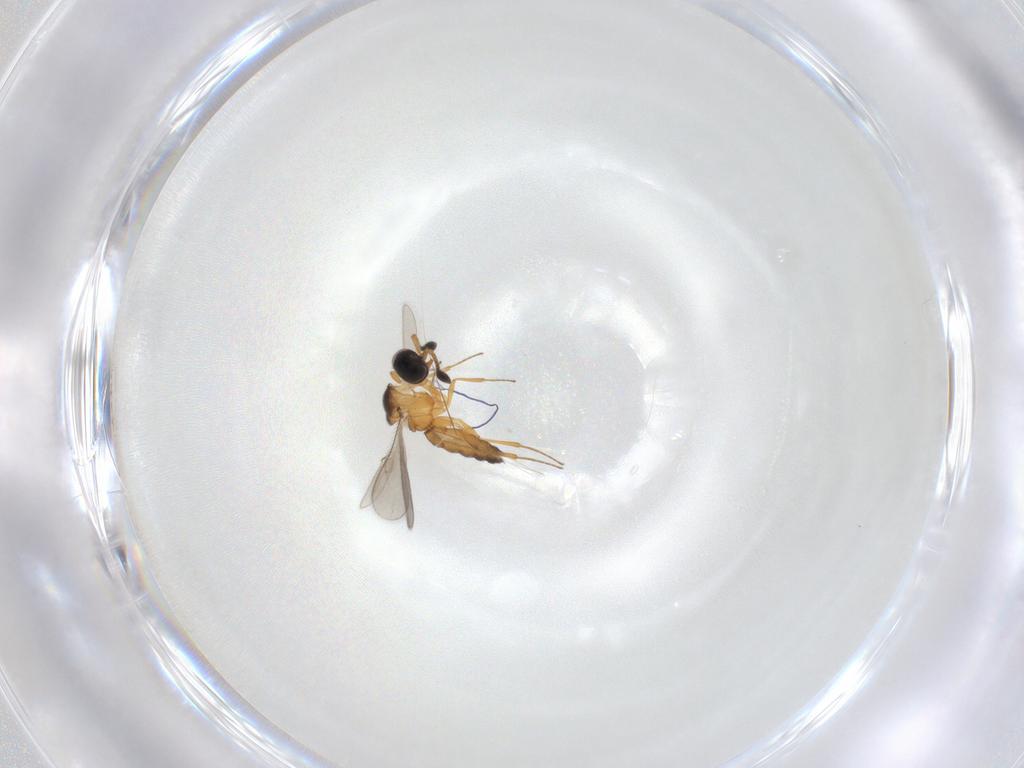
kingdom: Animalia
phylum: Arthropoda
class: Insecta
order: Hymenoptera
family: Scelionidae
